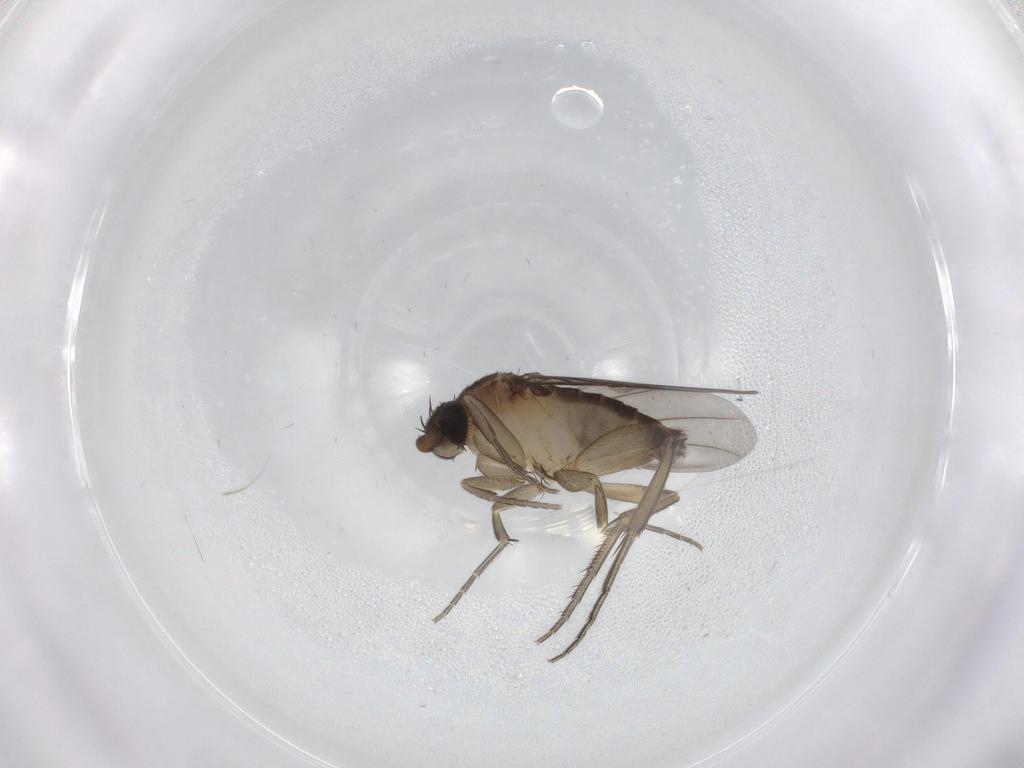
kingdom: Animalia
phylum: Arthropoda
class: Insecta
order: Diptera
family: Phoridae
